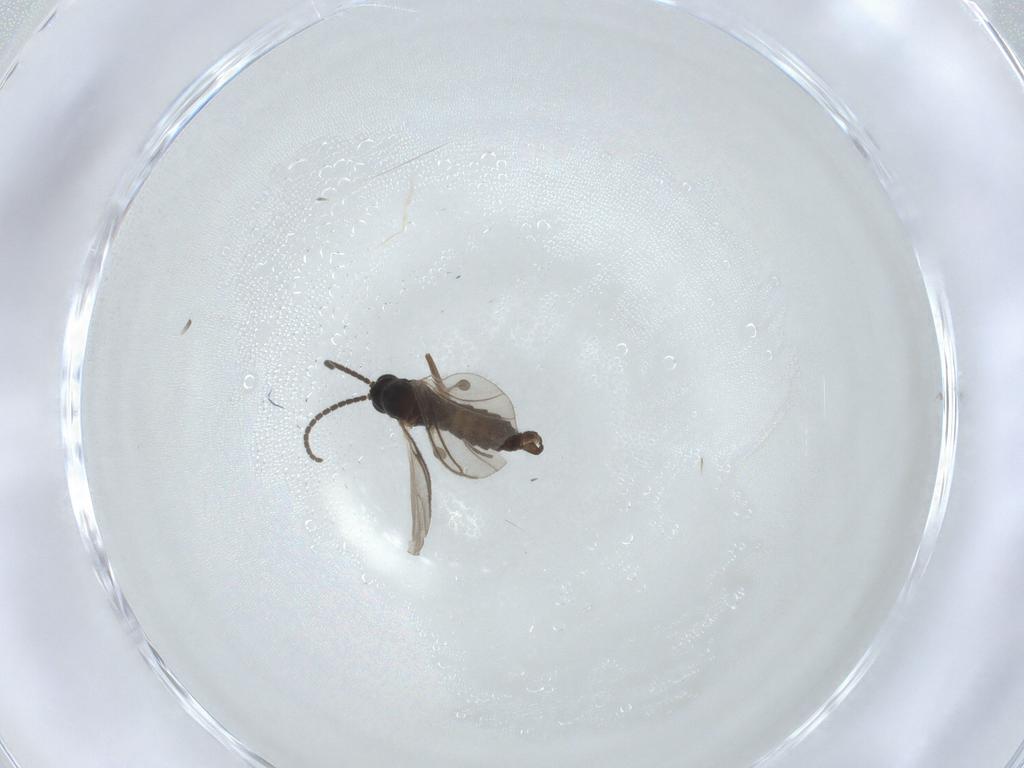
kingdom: Animalia
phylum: Arthropoda
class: Insecta
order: Diptera
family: Sciaridae
